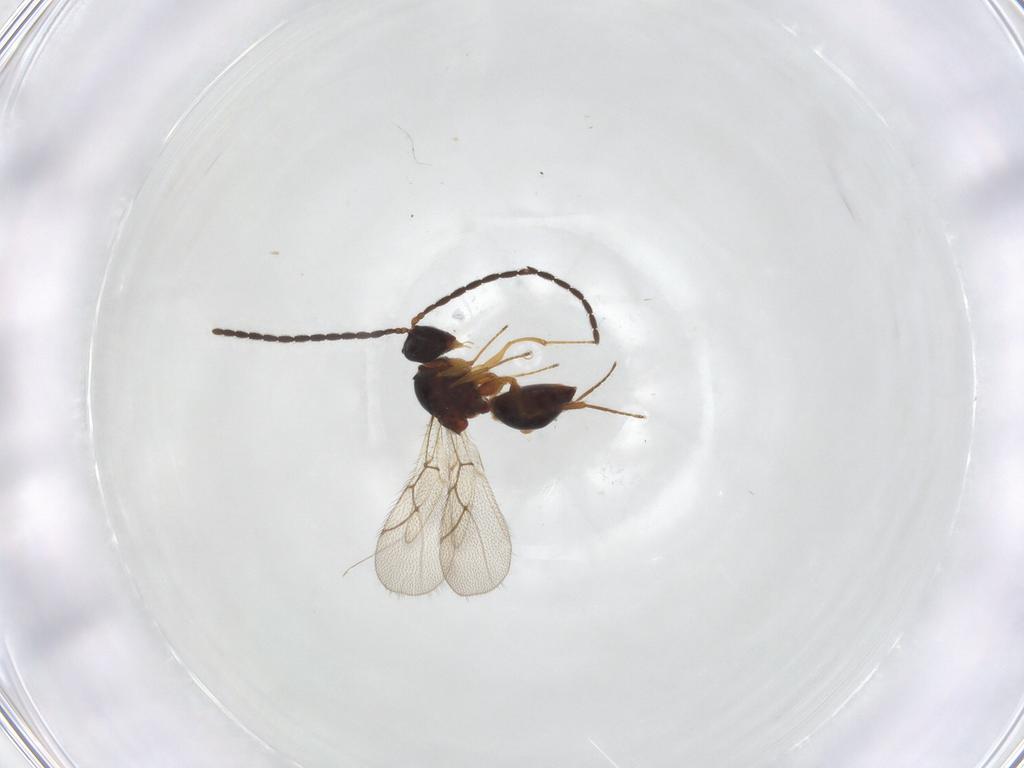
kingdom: Animalia
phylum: Arthropoda
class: Insecta
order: Hymenoptera
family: Figitidae
